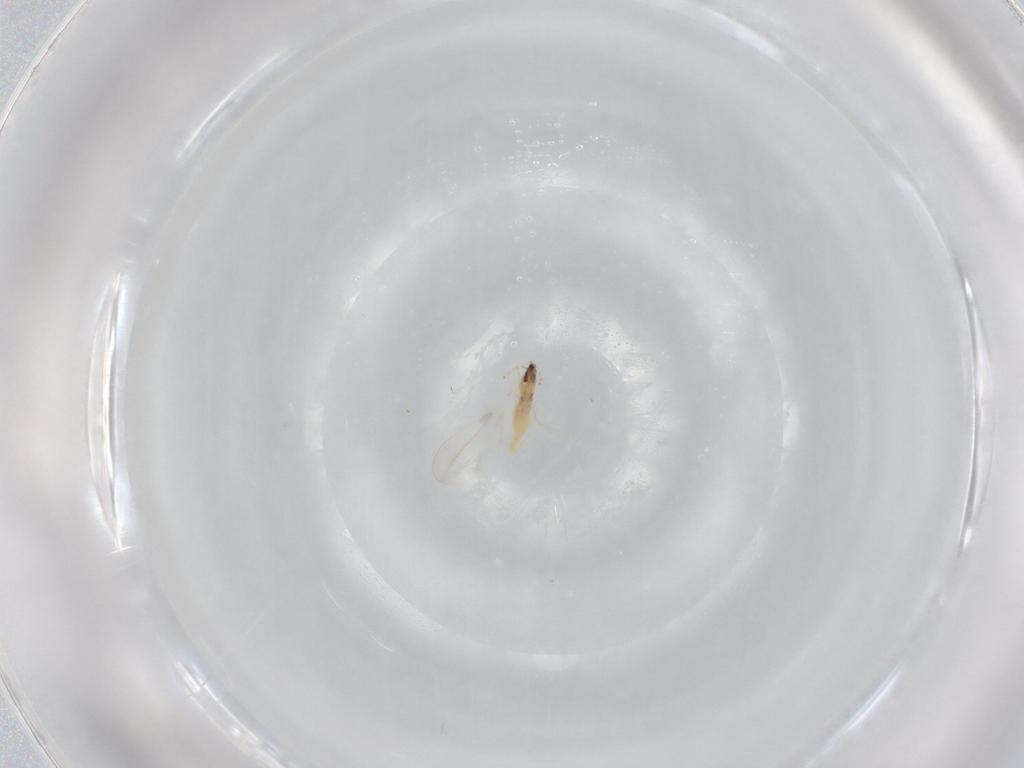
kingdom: Animalia
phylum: Arthropoda
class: Insecta
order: Diptera
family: Cecidomyiidae
